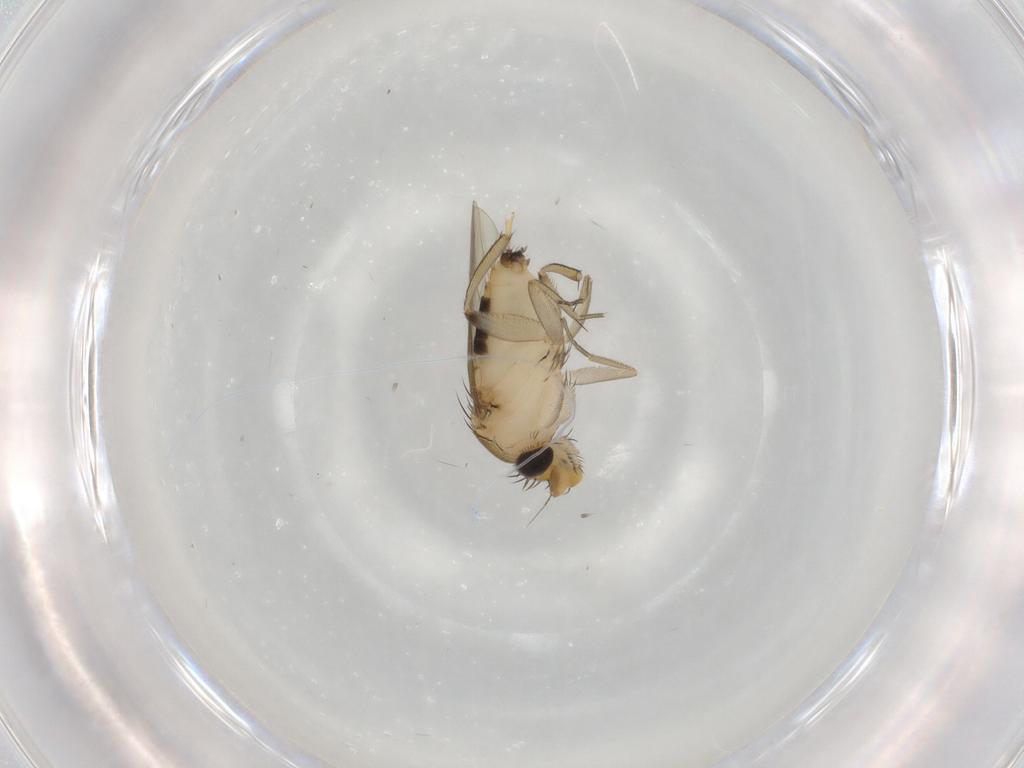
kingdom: Animalia
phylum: Arthropoda
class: Insecta
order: Diptera
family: Phoridae
